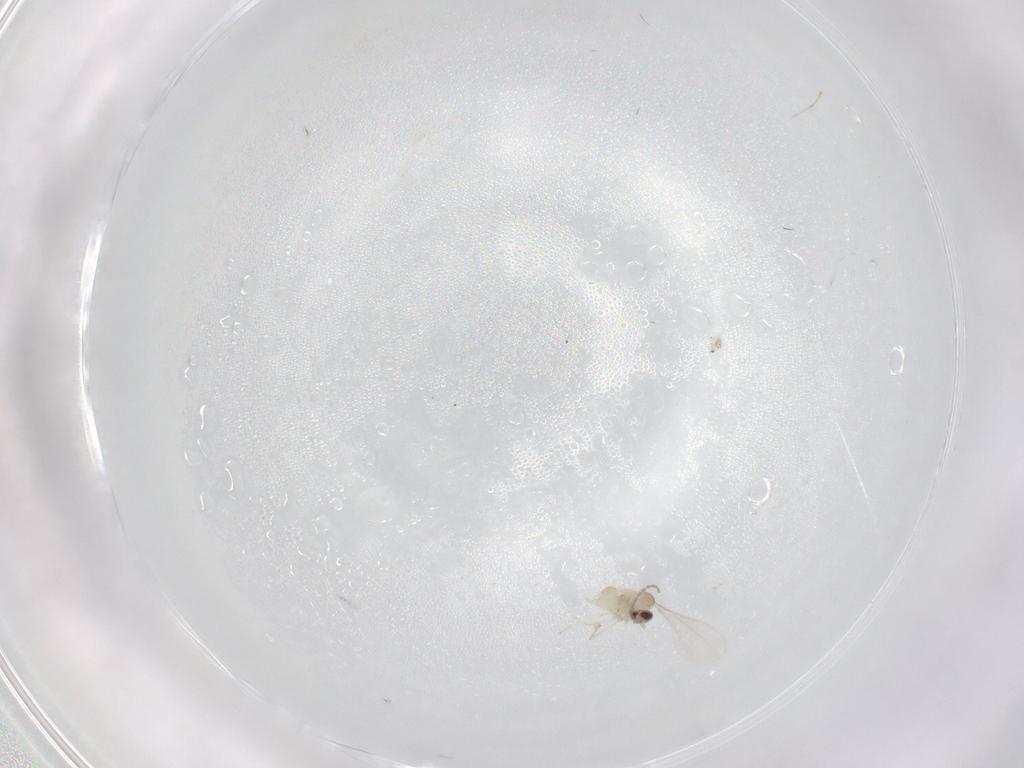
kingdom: Animalia
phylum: Arthropoda
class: Insecta
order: Diptera
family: Cecidomyiidae
